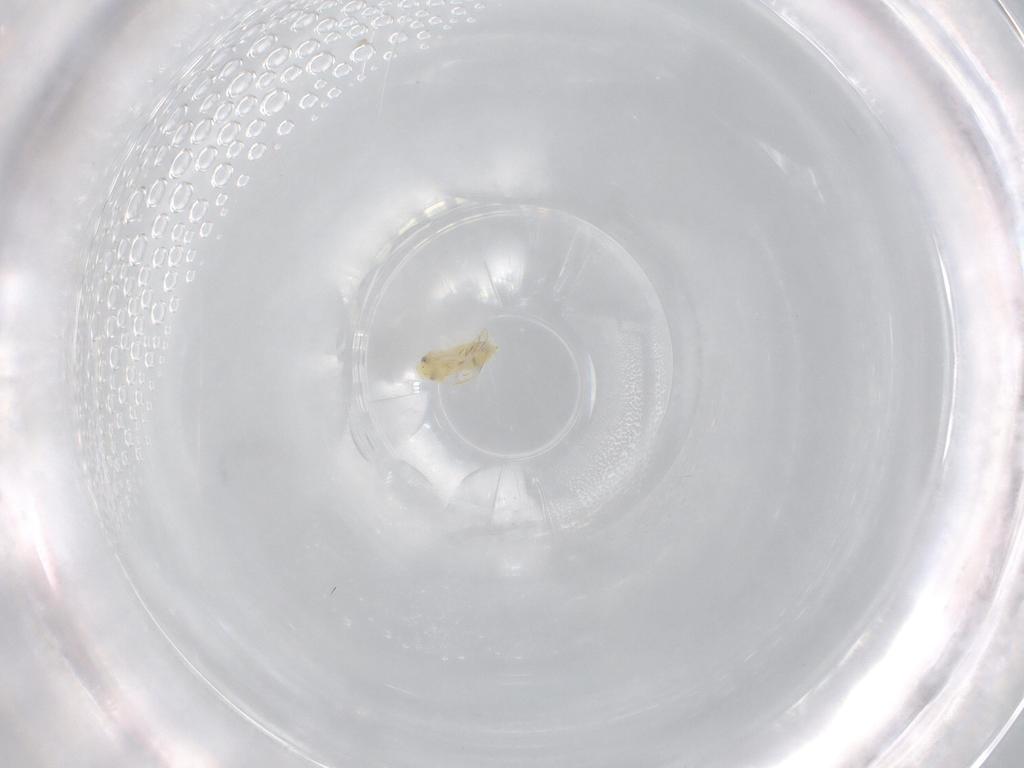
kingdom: Animalia
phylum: Arthropoda
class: Insecta
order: Hemiptera
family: Aleyrodidae
